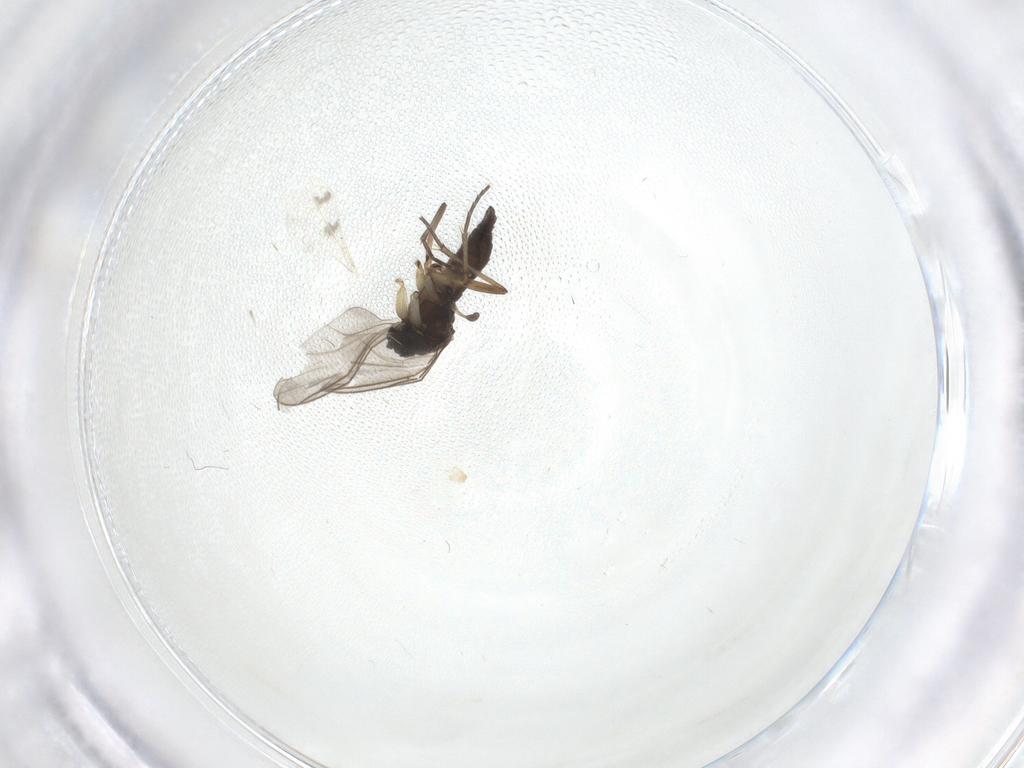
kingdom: Animalia
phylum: Arthropoda
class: Insecta
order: Diptera
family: Sciaridae
